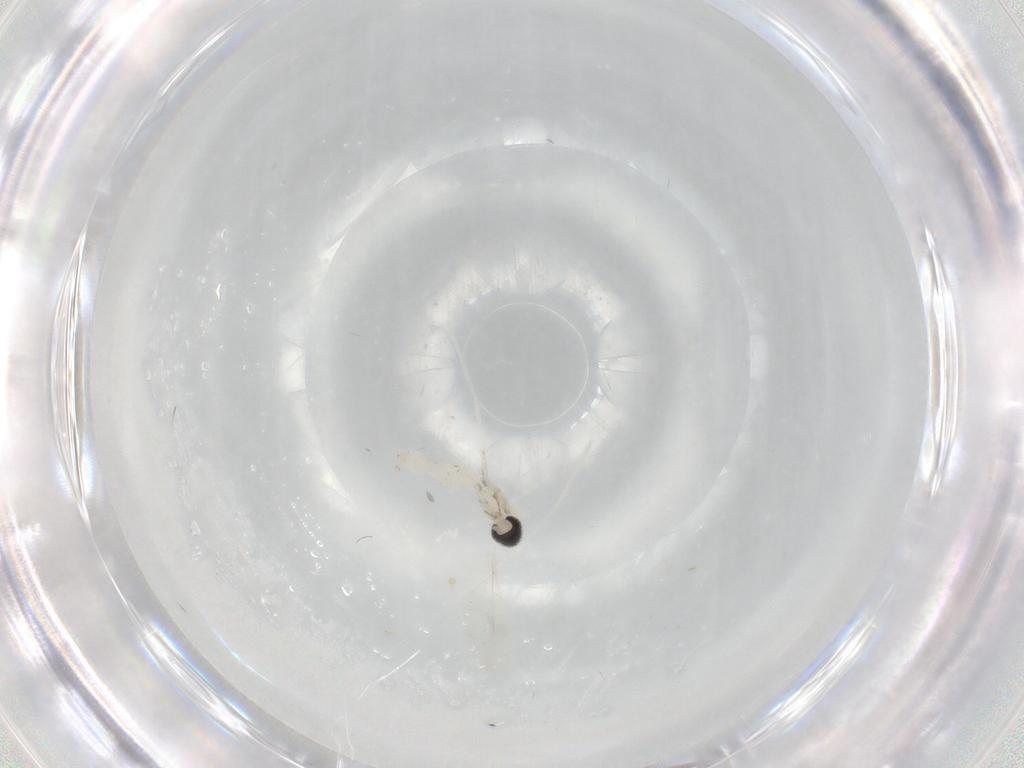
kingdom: Animalia
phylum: Arthropoda
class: Insecta
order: Diptera
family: Cecidomyiidae
